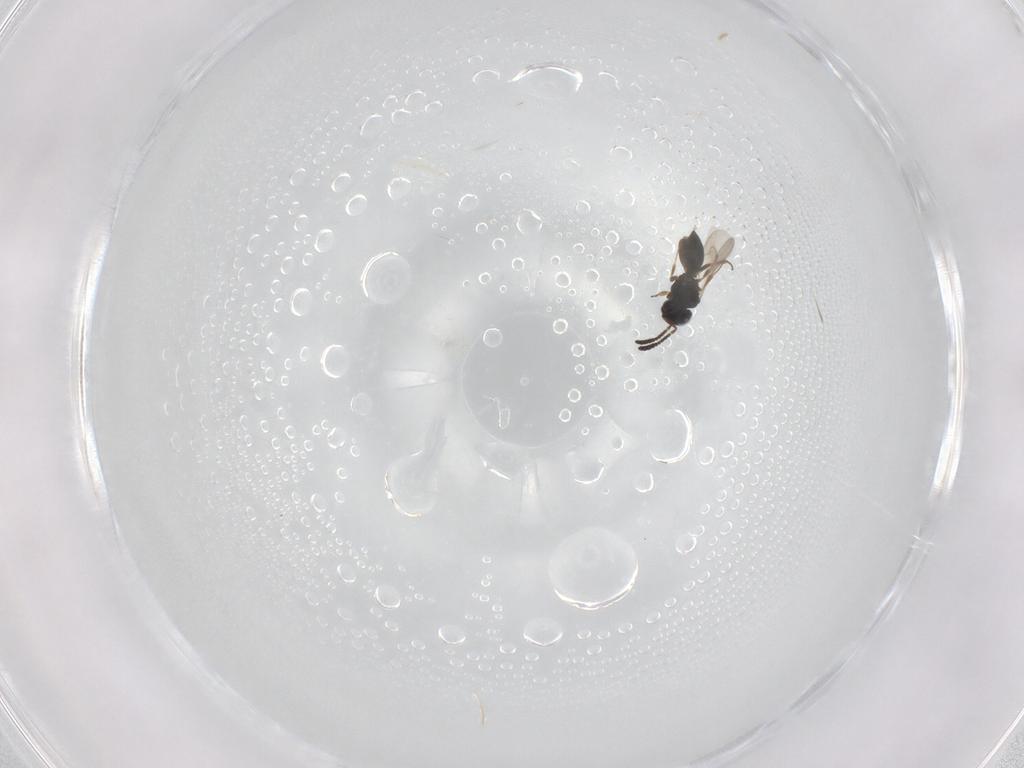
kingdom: Animalia
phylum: Arthropoda
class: Insecta
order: Hymenoptera
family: Scelionidae
